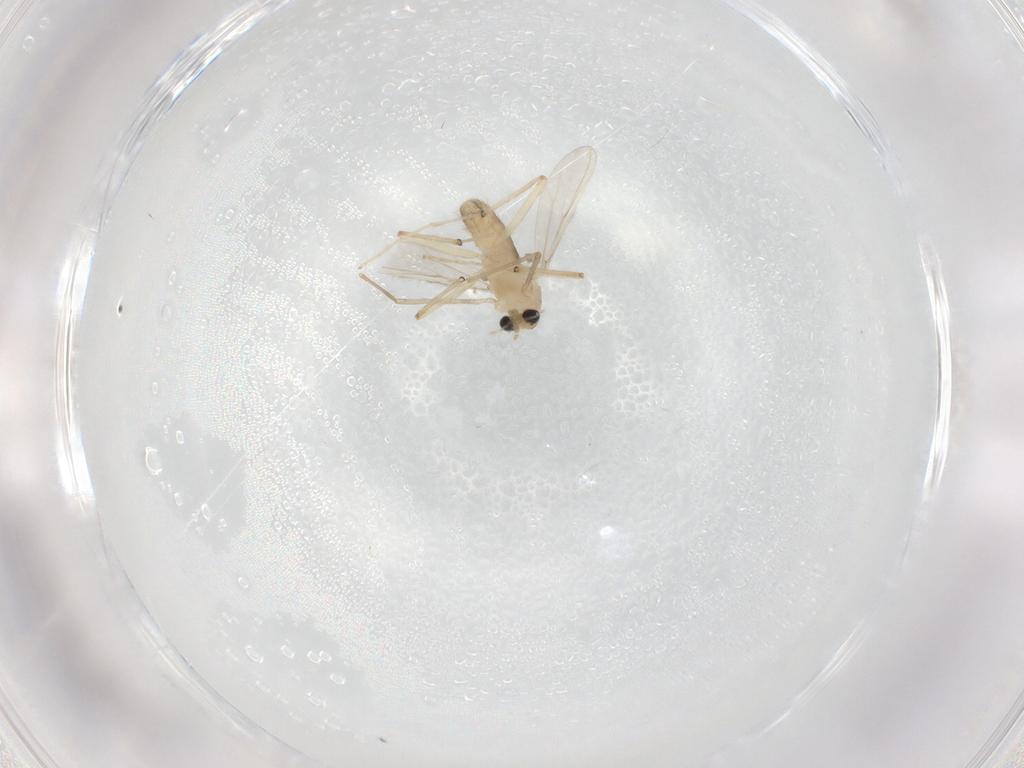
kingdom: Animalia
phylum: Arthropoda
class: Insecta
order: Diptera
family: Chironomidae
